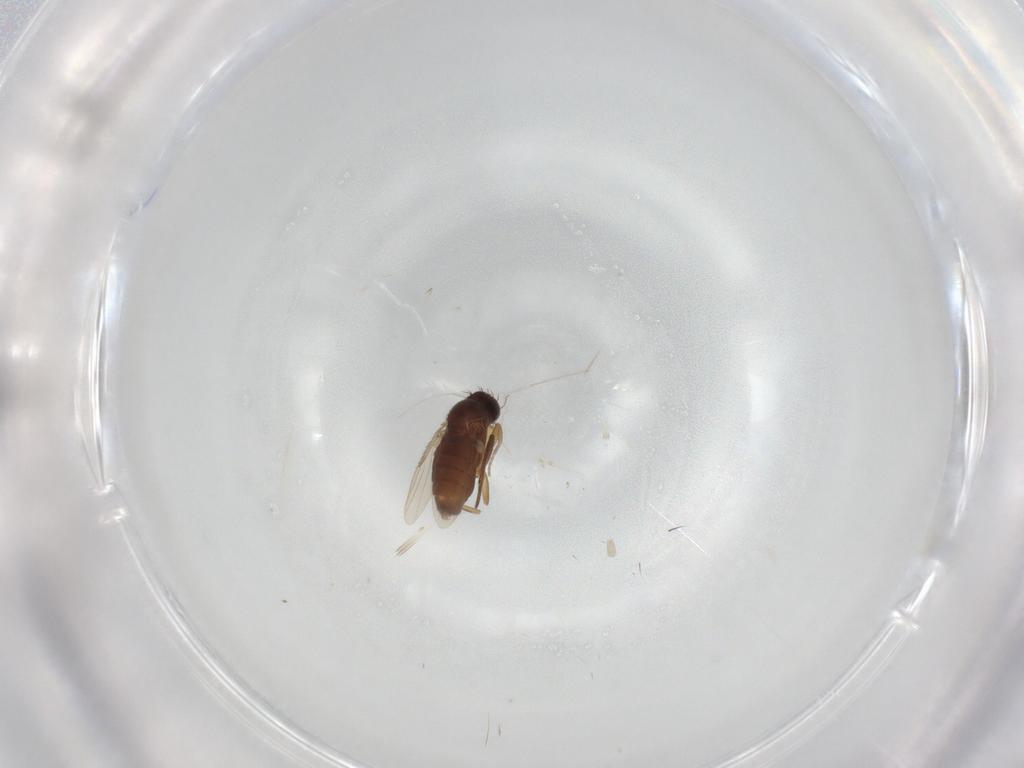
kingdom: Animalia
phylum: Arthropoda
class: Insecta
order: Diptera
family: Phoridae
